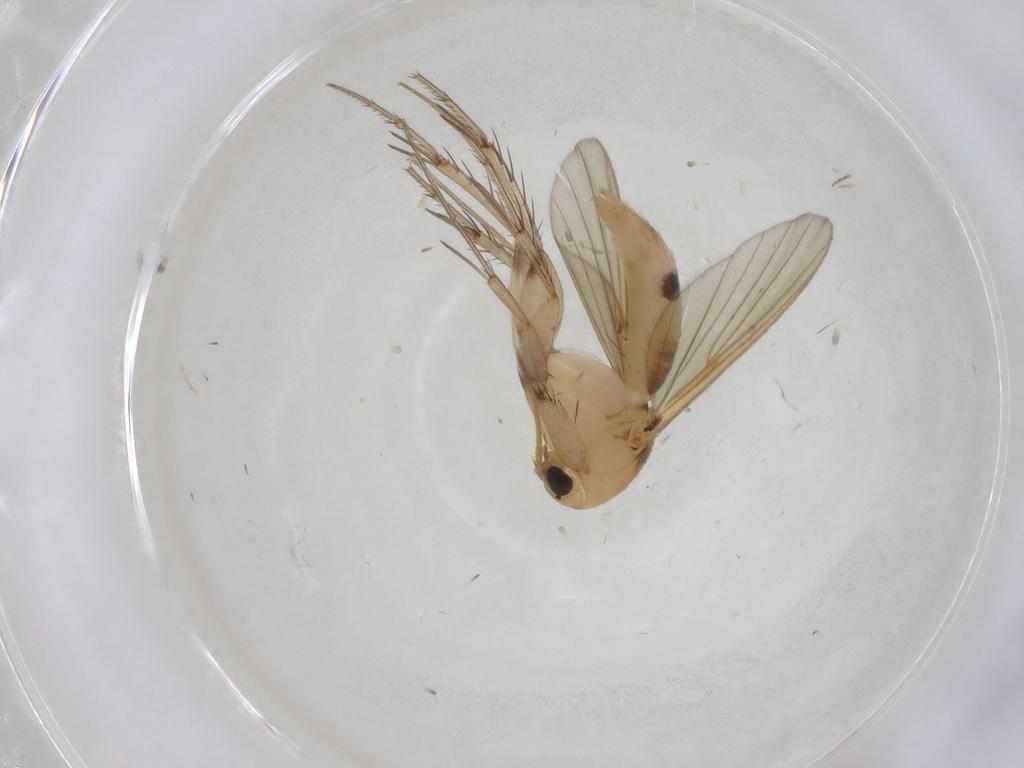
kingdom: Animalia
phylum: Arthropoda
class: Insecta
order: Diptera
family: Mycetophilidae
